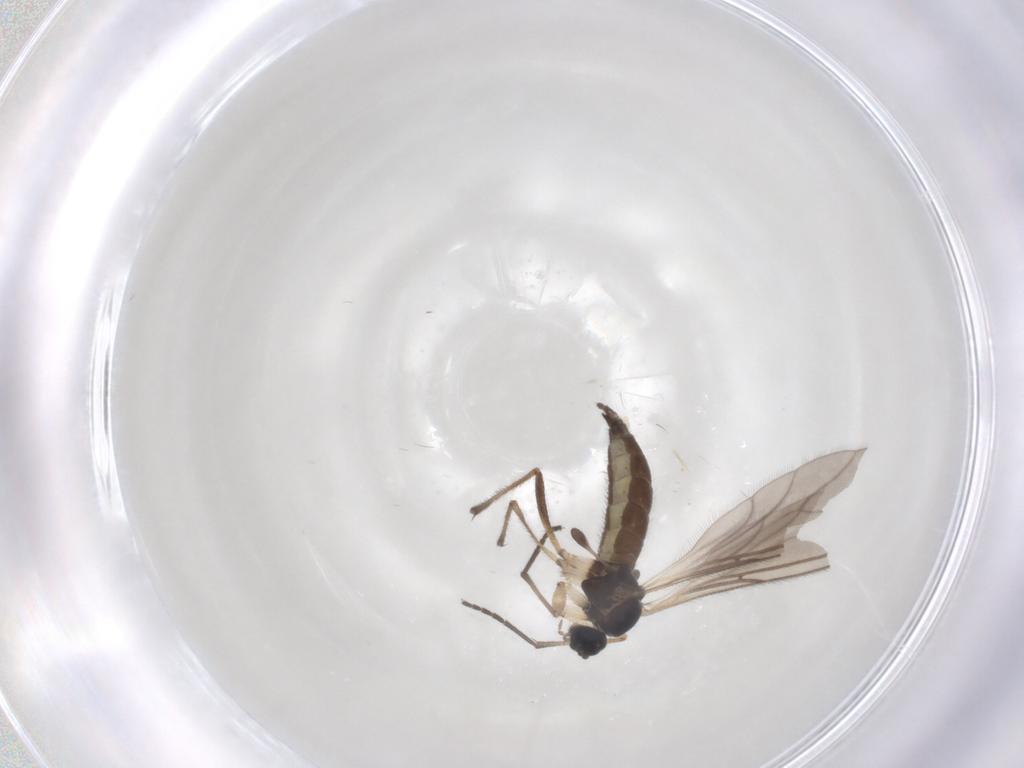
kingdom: Animalia
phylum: Arthropoda
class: Insecta
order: Diptera
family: Sciaridae
